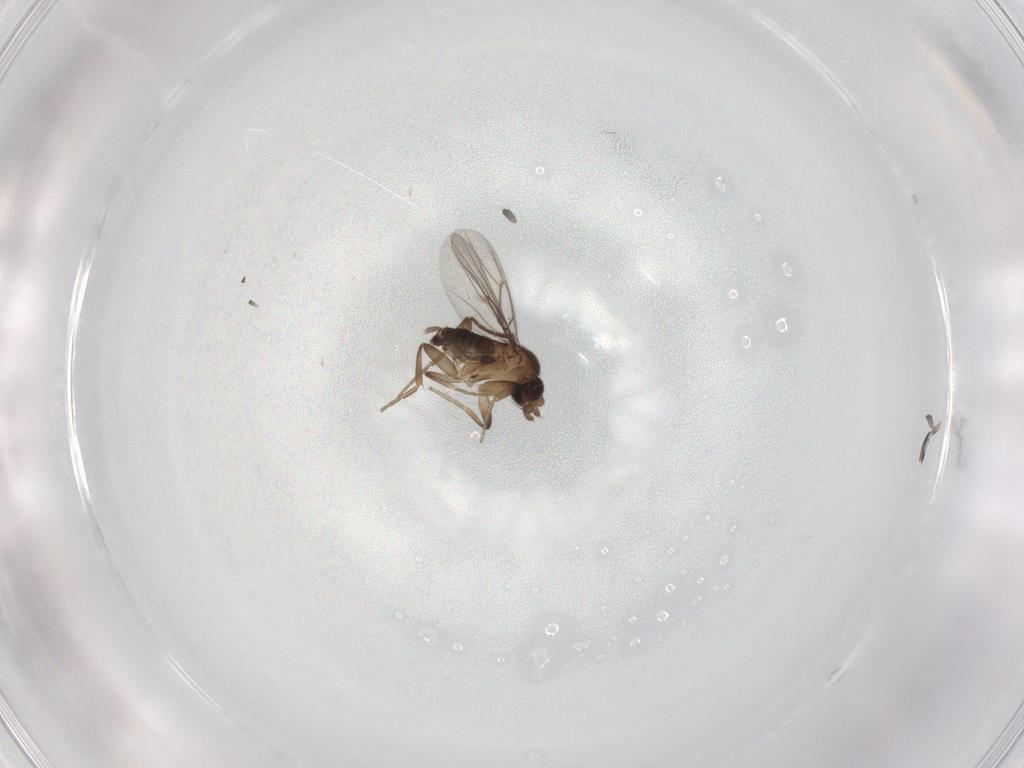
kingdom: Animalia
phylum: Arthropoda
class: Insecta
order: Diptera
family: Phoridae
